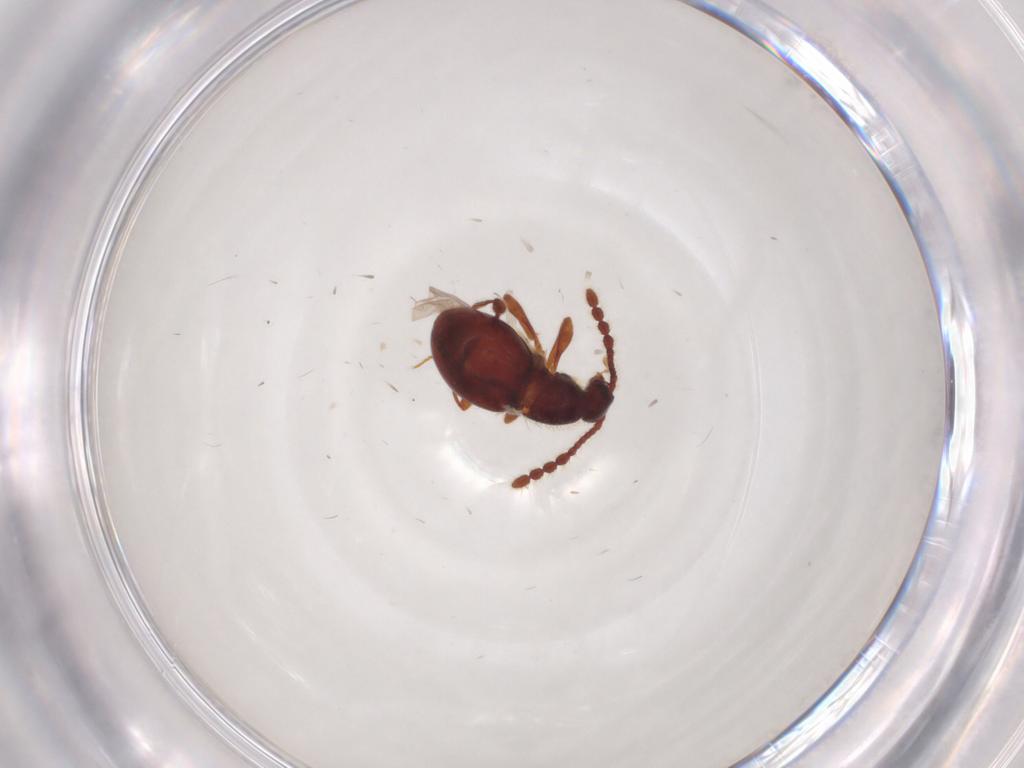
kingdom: Animalia
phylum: Arthropoda
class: Insecta
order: Coleoptera
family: Staphylinidae
